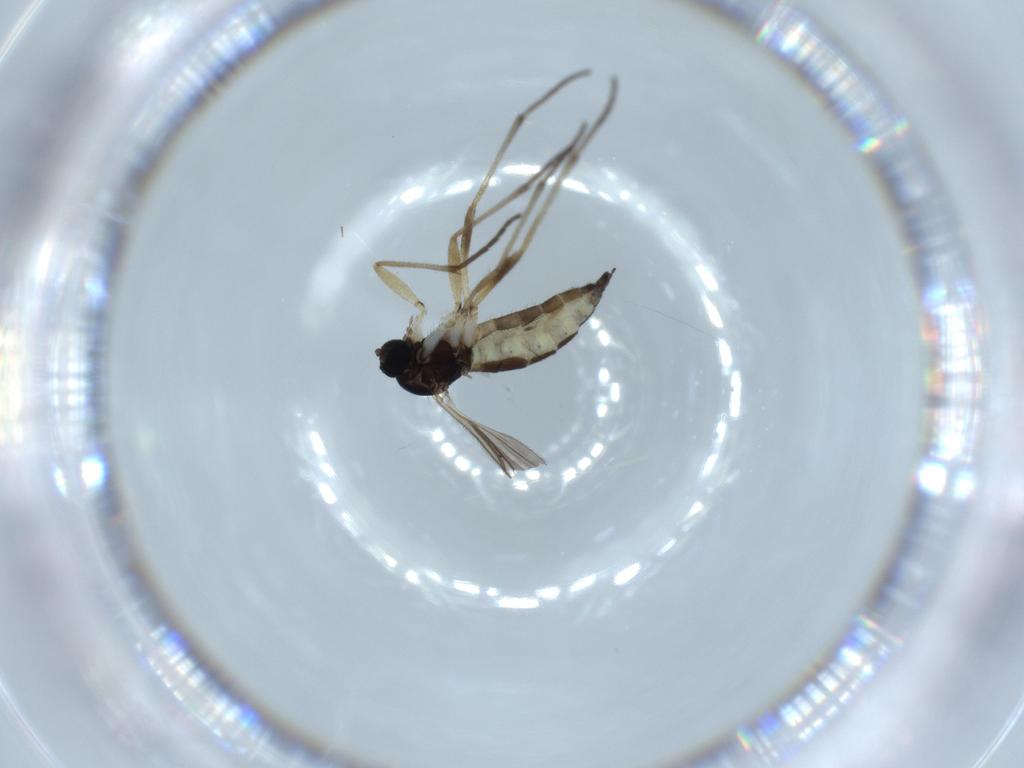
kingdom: Animalia
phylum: Arthropoda
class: Insecta
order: Diptera
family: Sciaridae
